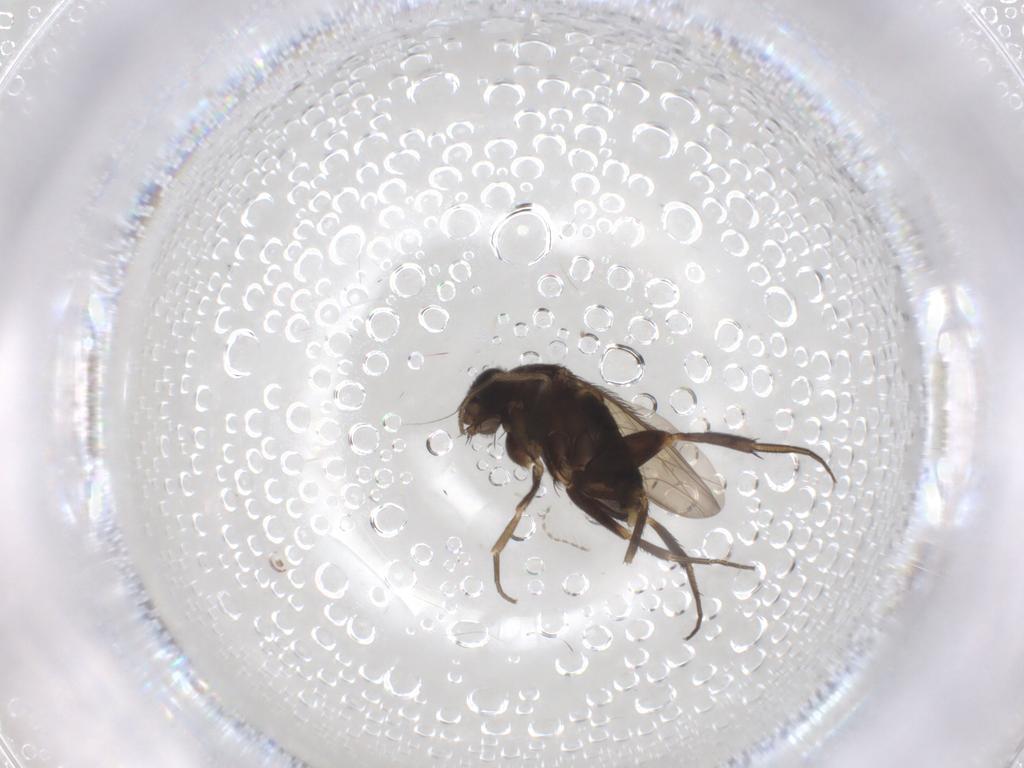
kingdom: Animalia
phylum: Arthropoda
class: Insecta
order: Diptera
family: Phoridae
